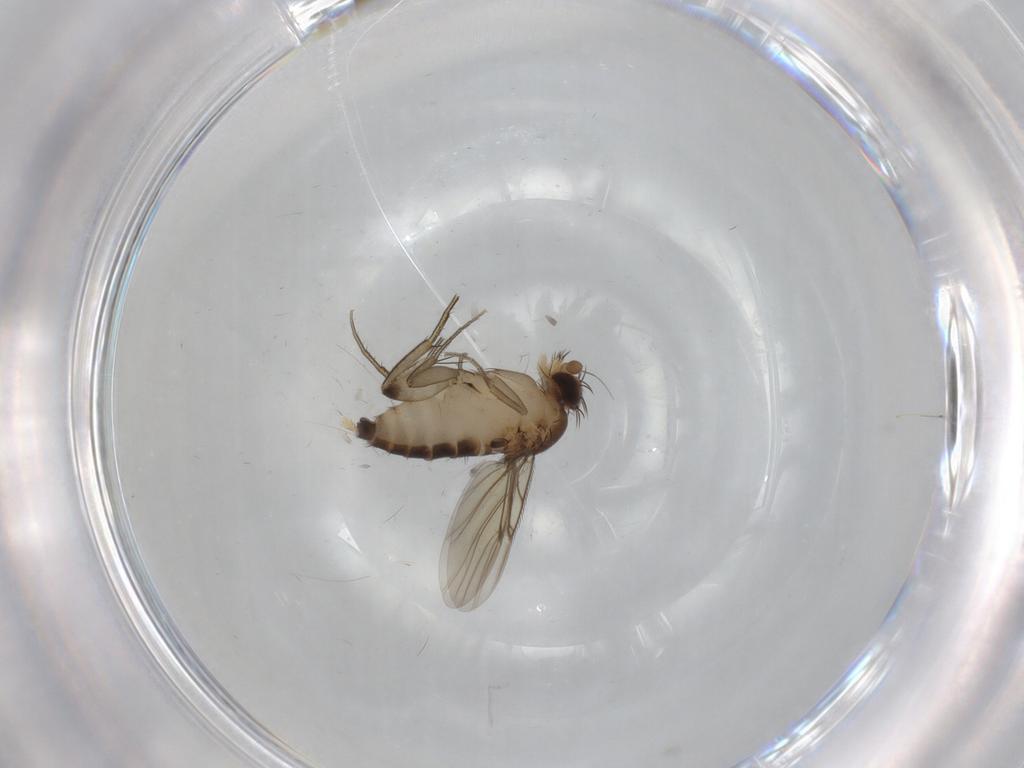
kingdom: Animalia
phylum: Arthropoda
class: Insecta
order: Diptera
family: Phoridae
